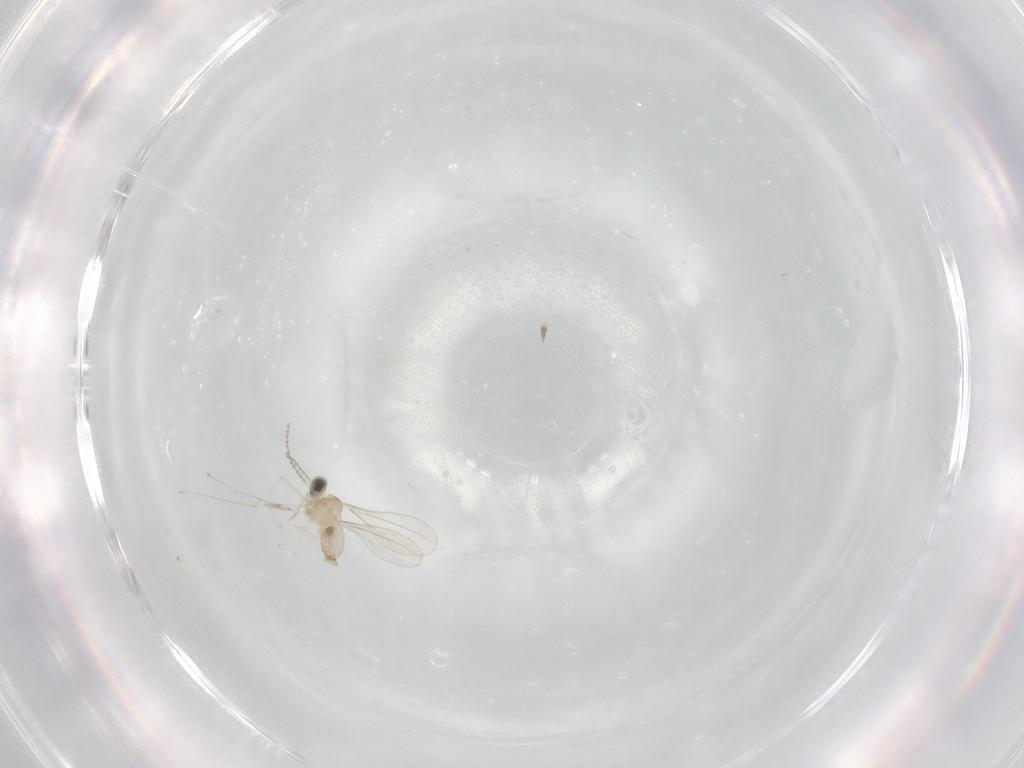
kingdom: Animalia
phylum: Arthropoda
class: Insecta
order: Diptera
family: Cecidomyiidae
